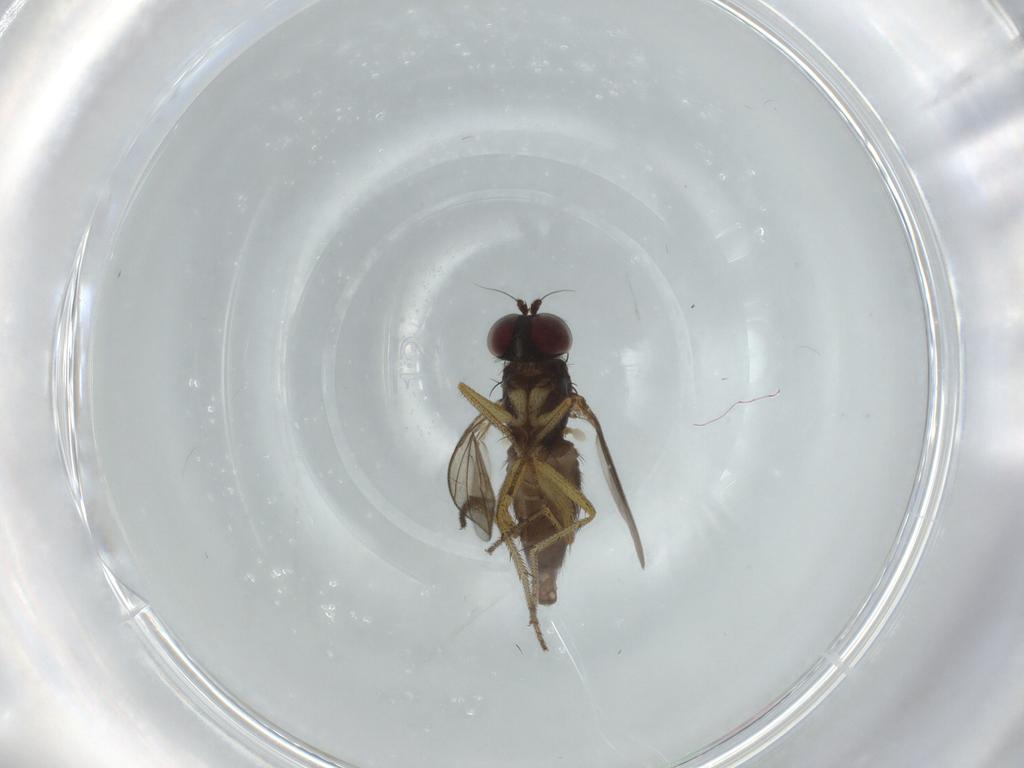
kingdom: Animalia
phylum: Arthropoda
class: Insecta
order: Diptera
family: Dolichopodidae
